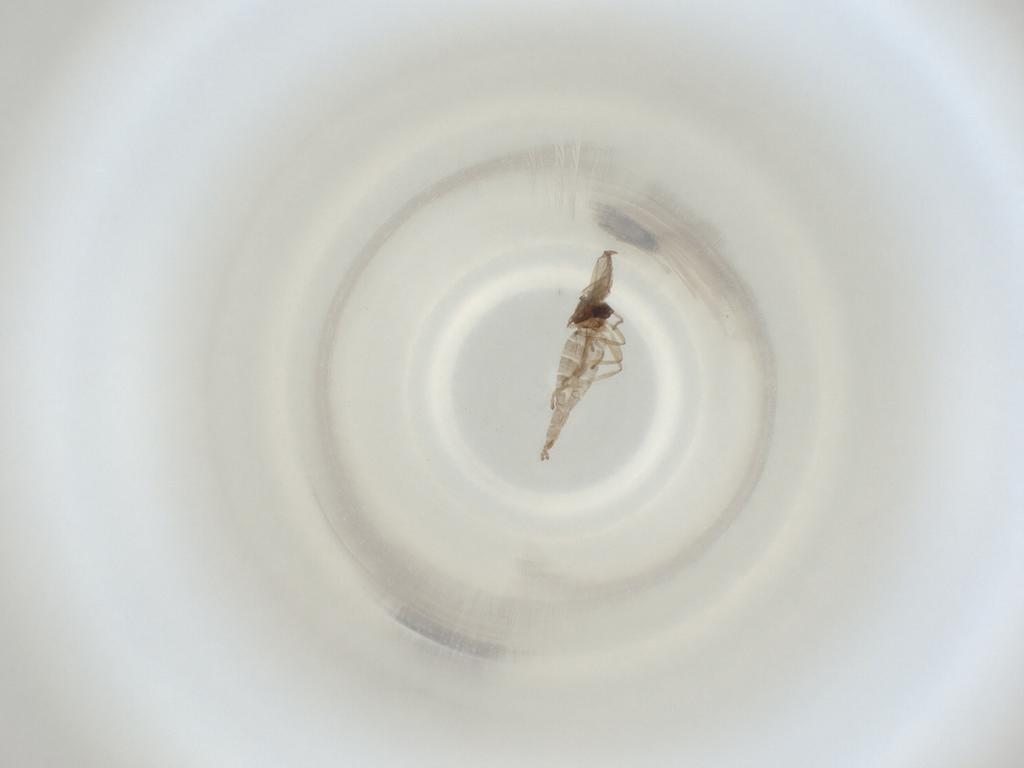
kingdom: Animalia
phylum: Arthropoda
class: Insecta
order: Diptera
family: Cecidomyiidae
